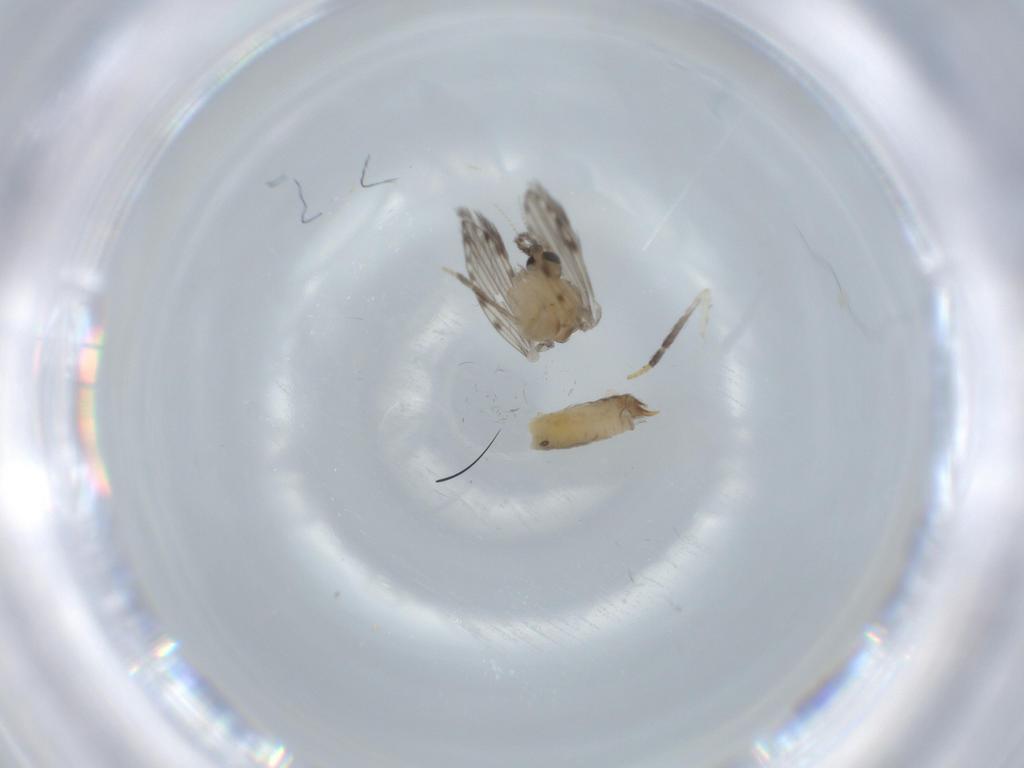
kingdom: Animalia
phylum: Arthropoda
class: Insecta
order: Diptera
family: Psychodidae
